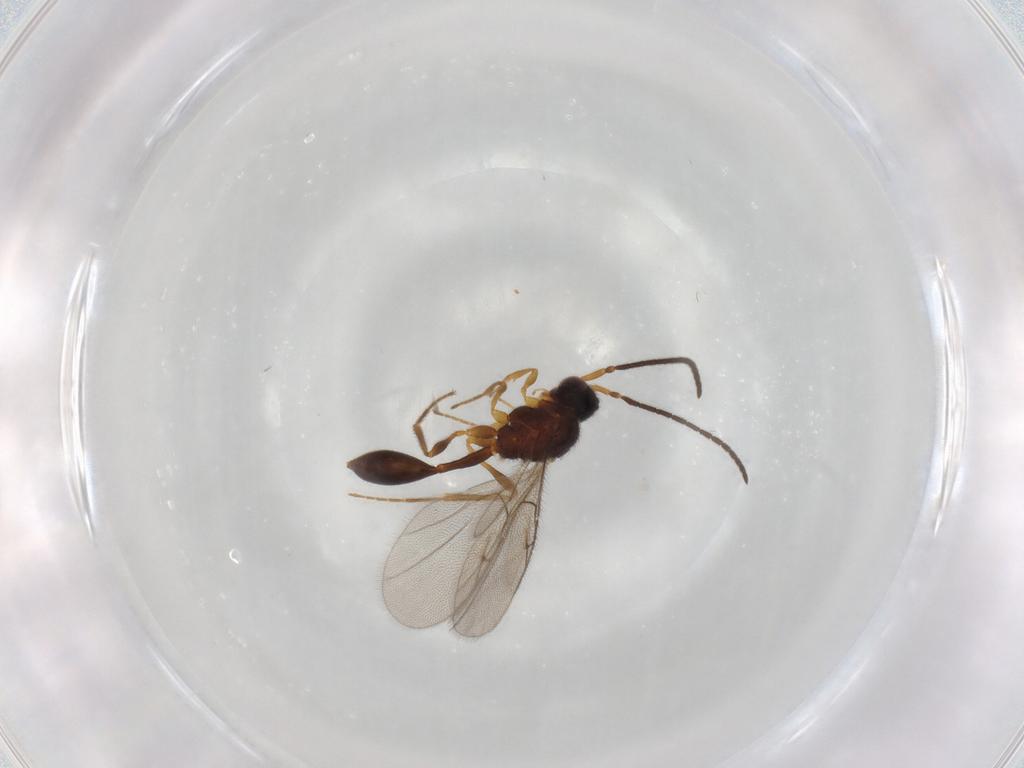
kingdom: Animalia
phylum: Arthropoda
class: Insecta
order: Hymenoptera
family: Diapriidae
